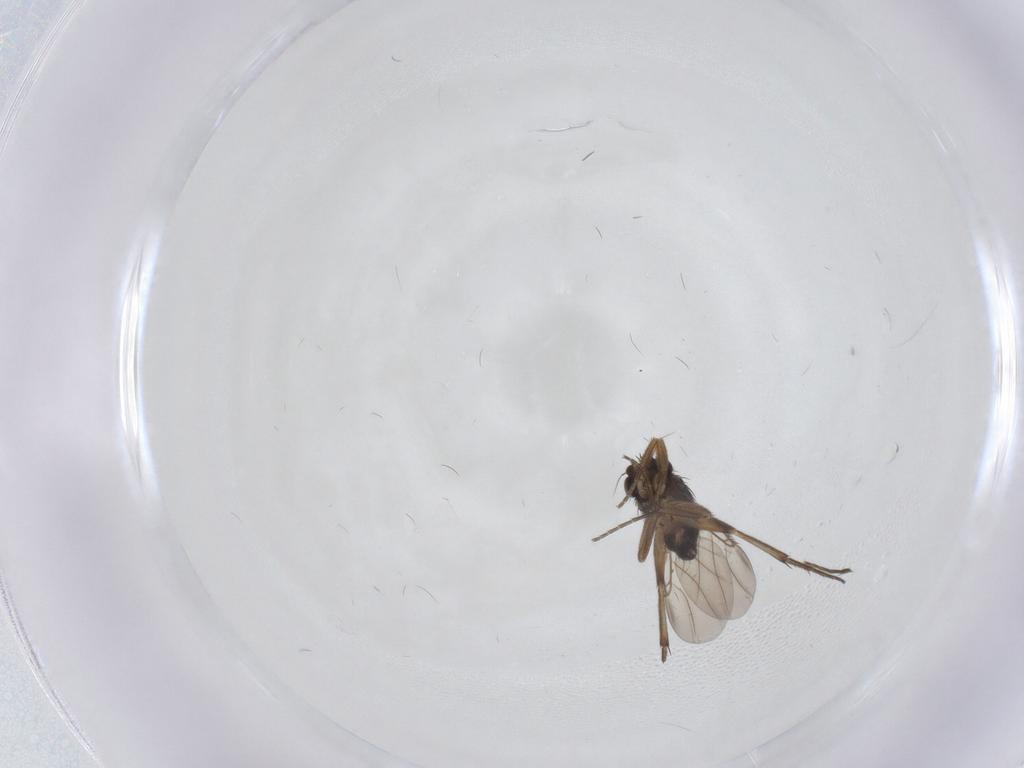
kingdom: Animalia
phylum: Arthropoda
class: Insecta
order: Diptera
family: Phoridae
